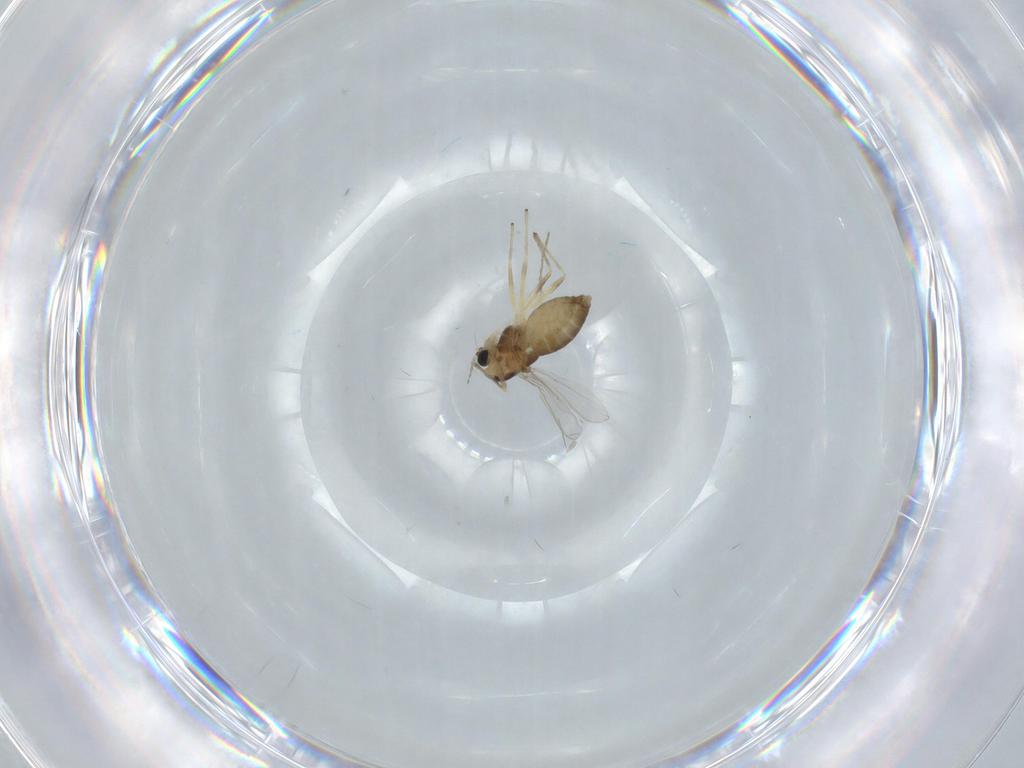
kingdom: Animalia
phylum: Arthropoda
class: Insecta
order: Diptera
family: Chironomidae
